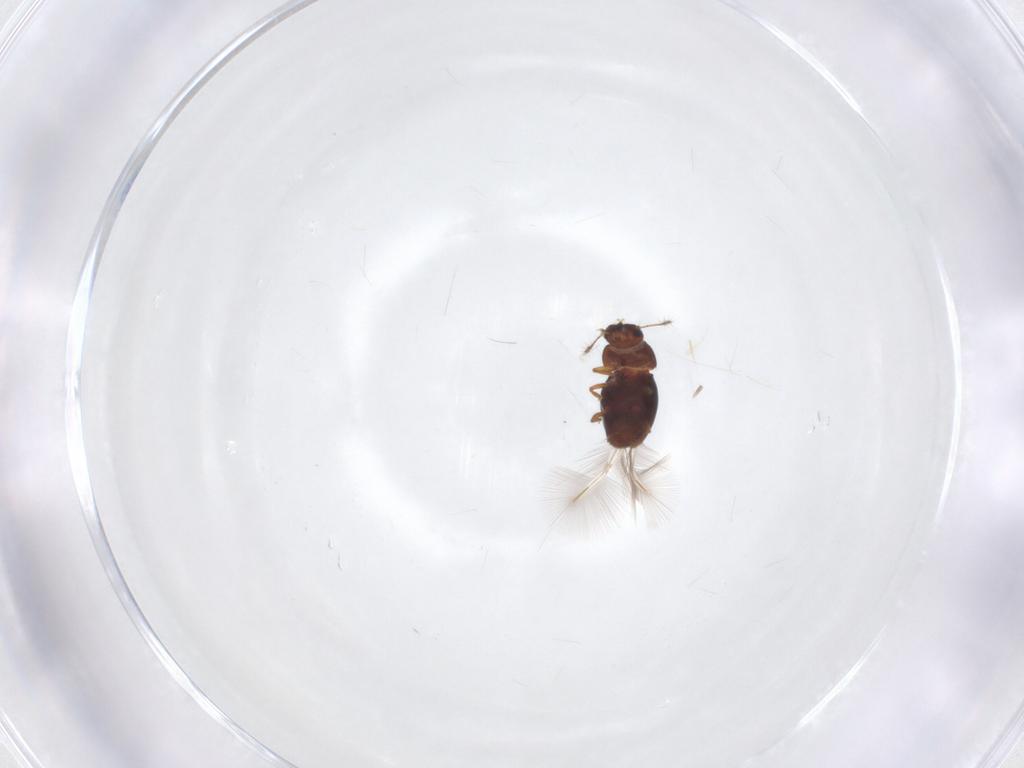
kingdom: Animalia
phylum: Arthropoda
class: Insecta
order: Coleoptera
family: Ptiliidae
